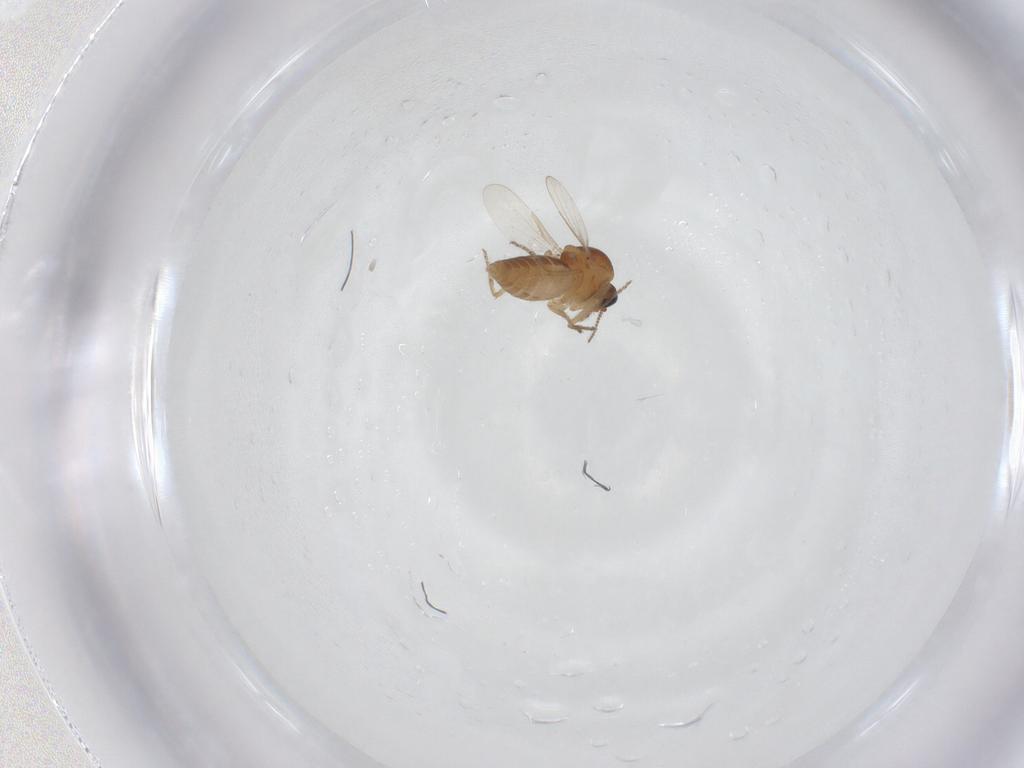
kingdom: Animalia
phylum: Arthropoda
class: Insecta
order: Diptera
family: Ceratopogonidae
